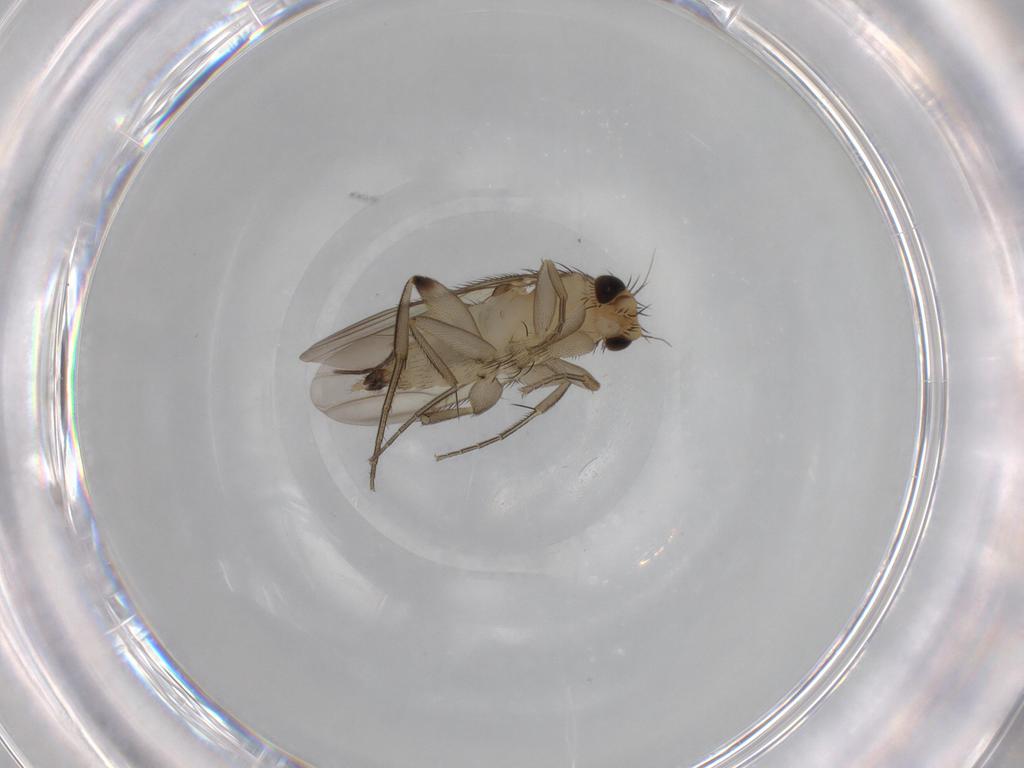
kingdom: Animalia
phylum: Arthropoda
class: Insecta
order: Diptera
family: Phoridae
